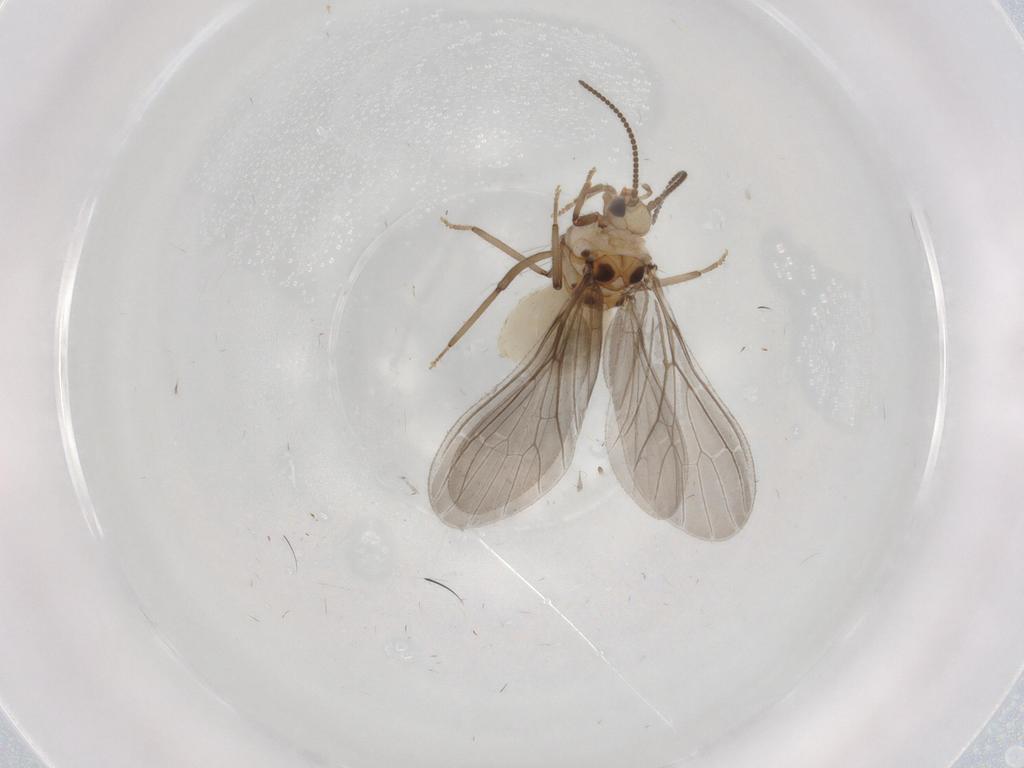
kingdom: Animalia
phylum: Arthropoda
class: Insecta
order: Neuroptera
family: Coniopterygidae
